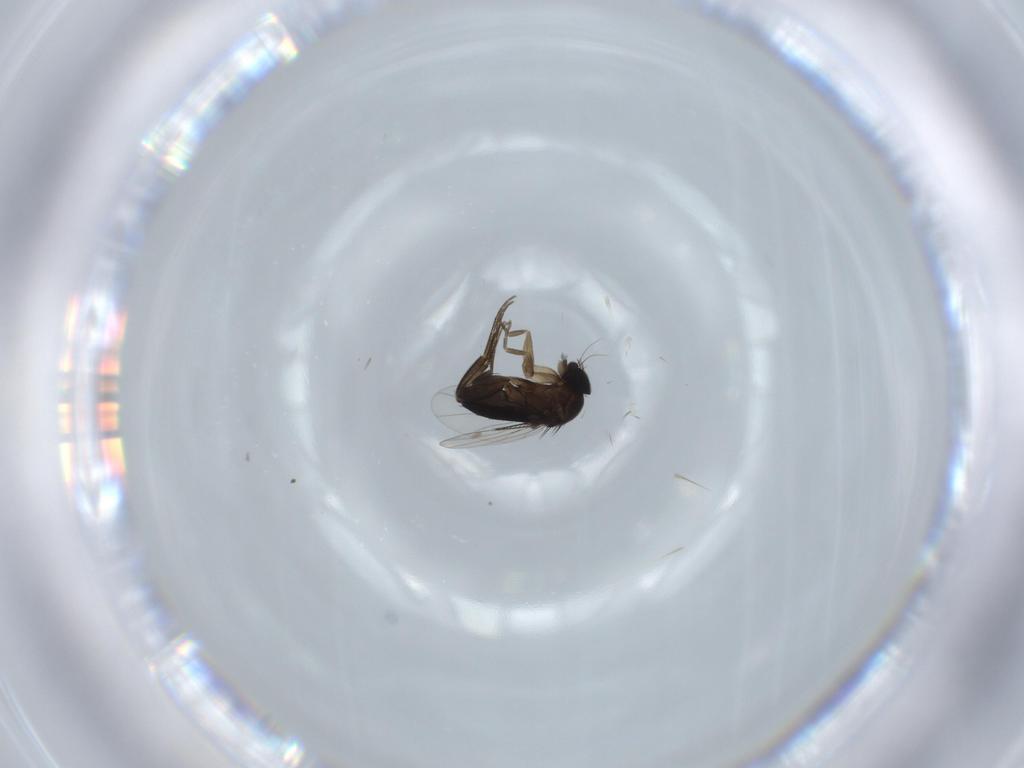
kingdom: Animalia
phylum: Arthropoda
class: Insecta
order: Diptera
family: Phoridae
